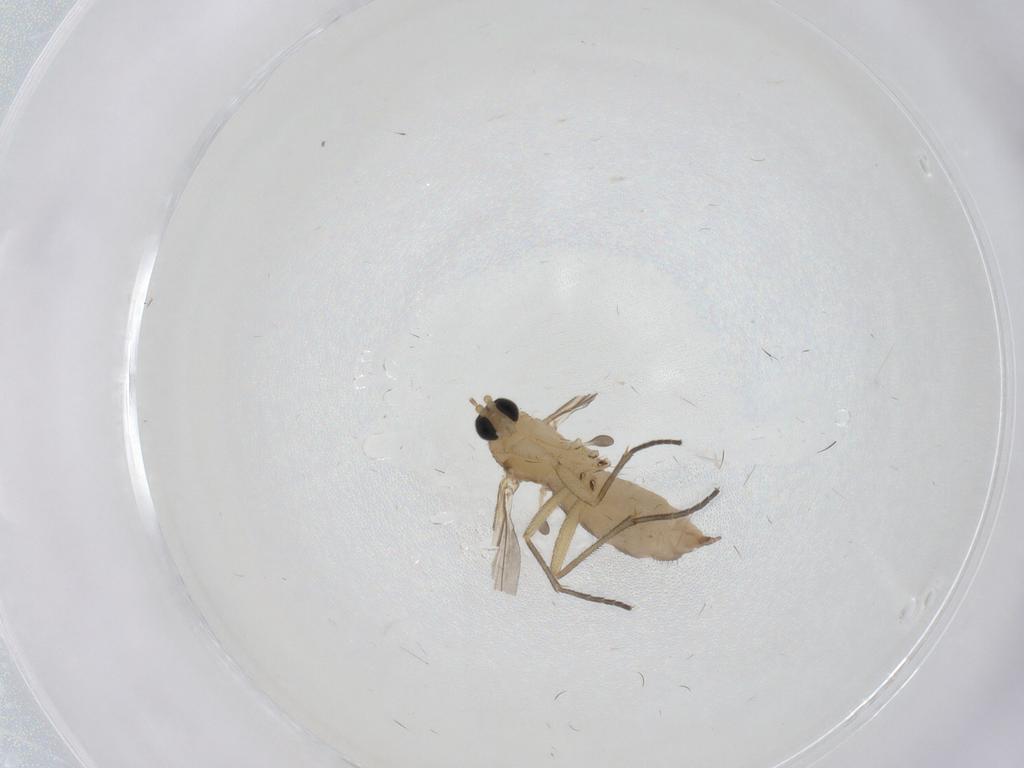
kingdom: Animalia
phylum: Arthropoda
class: Insecta
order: Diptera
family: Sciaridae
